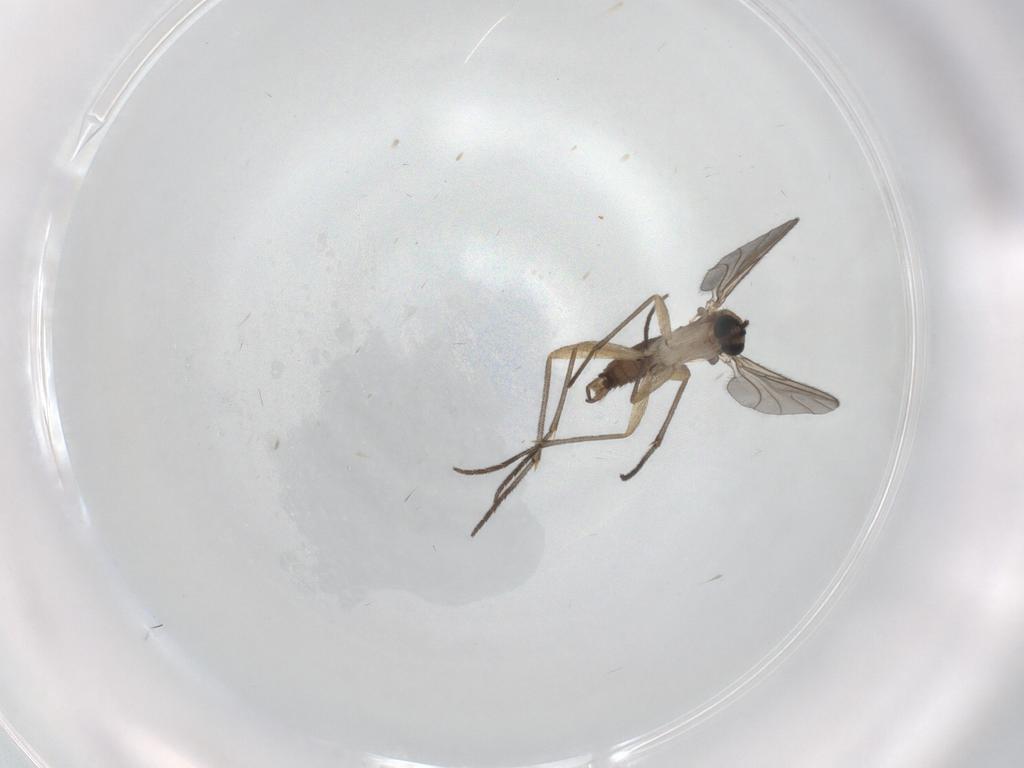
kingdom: Animalia
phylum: Arthropoda
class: Insecta
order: Diptera
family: Sciaridae
